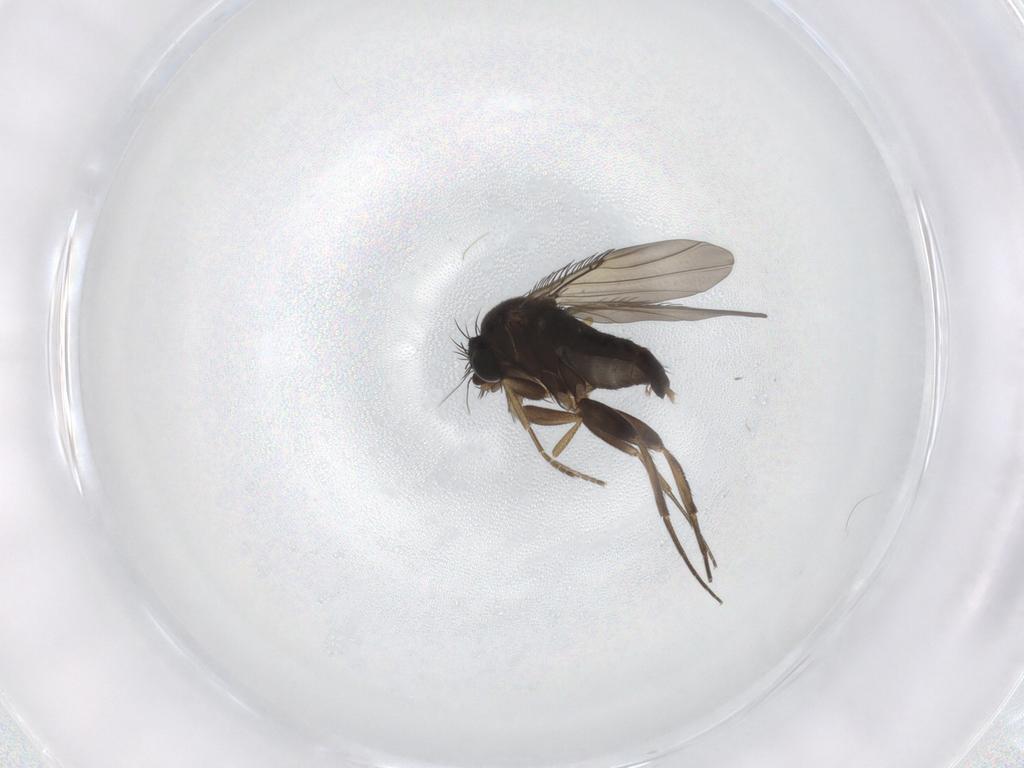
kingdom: Animalia
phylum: Arthropoda
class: Insecta
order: Diptera
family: Phoridae
